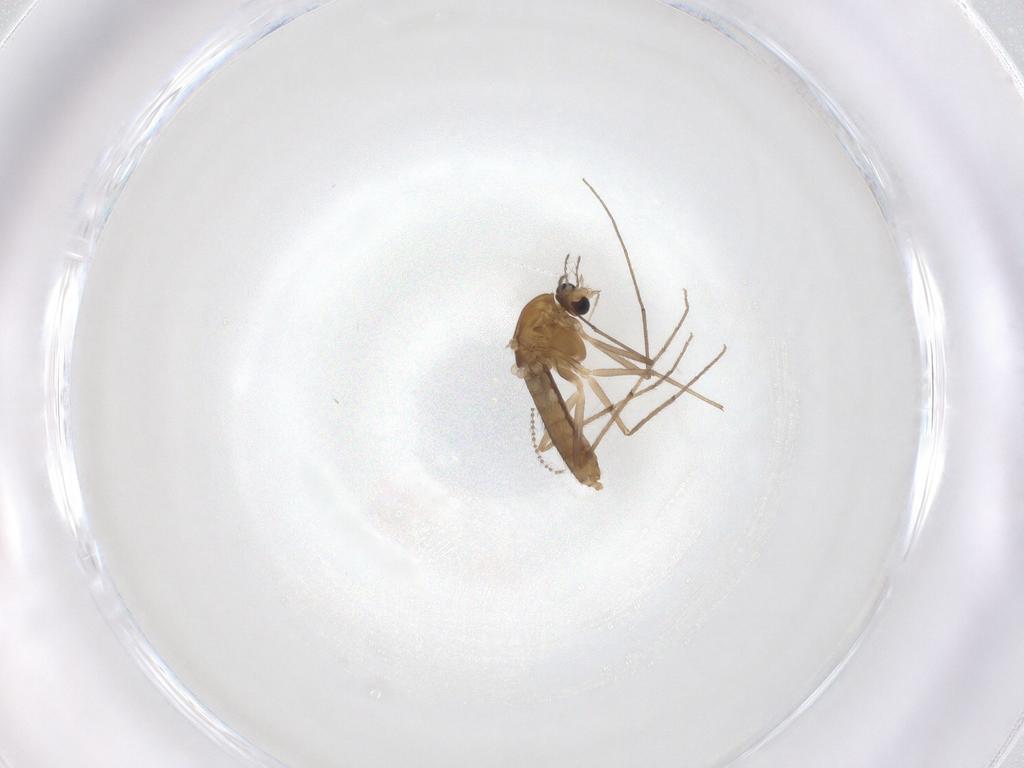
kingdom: Animalia
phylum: Arthropoda
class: Insecta
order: Diptera
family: Chironomidae
